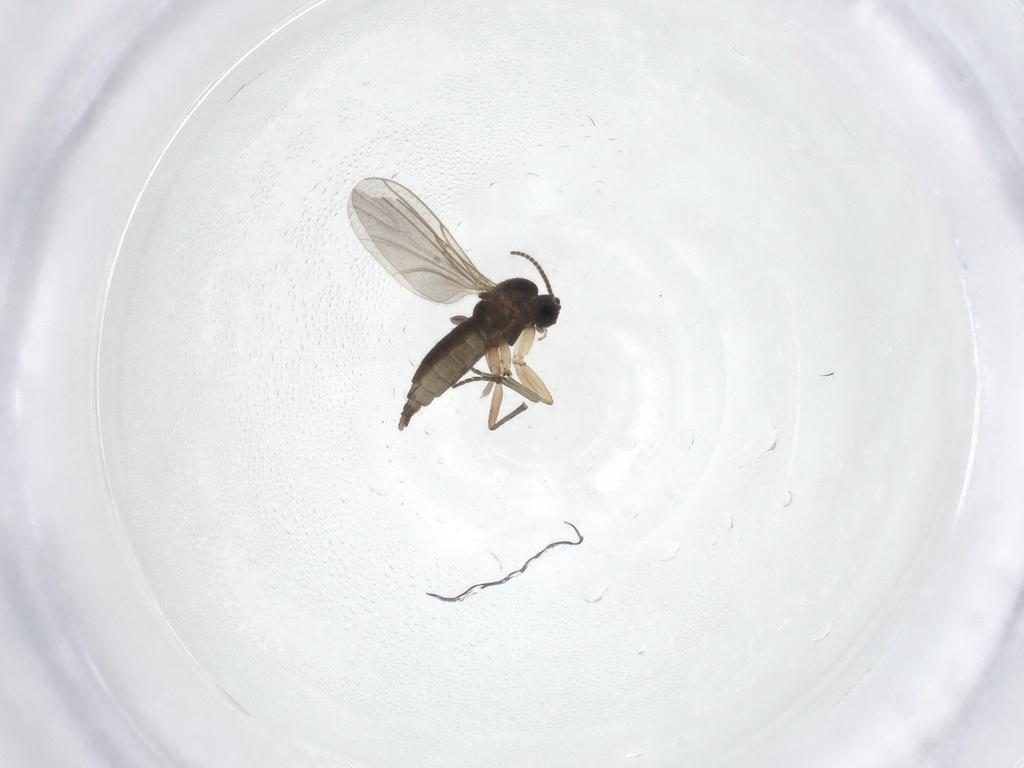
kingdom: Animalia
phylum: Arthropoda
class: Insecta
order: Diptera
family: Sciaridae
